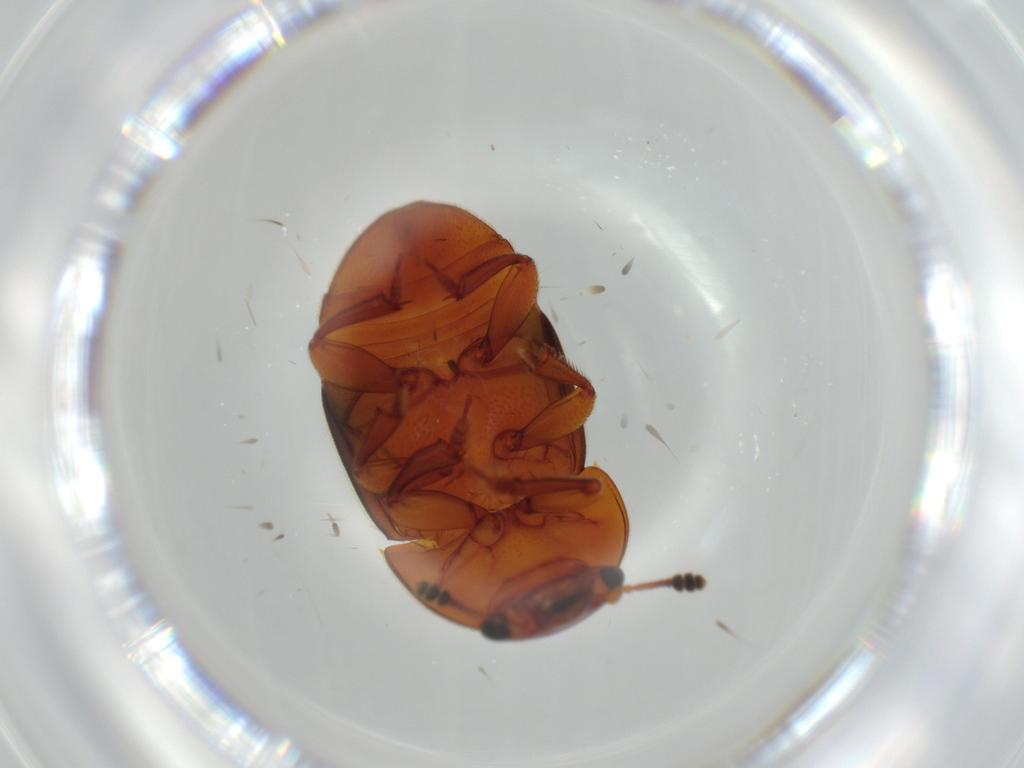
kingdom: Animalia
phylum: Arthropoda
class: Insecta
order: Coleoptera
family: Nitidulidae
